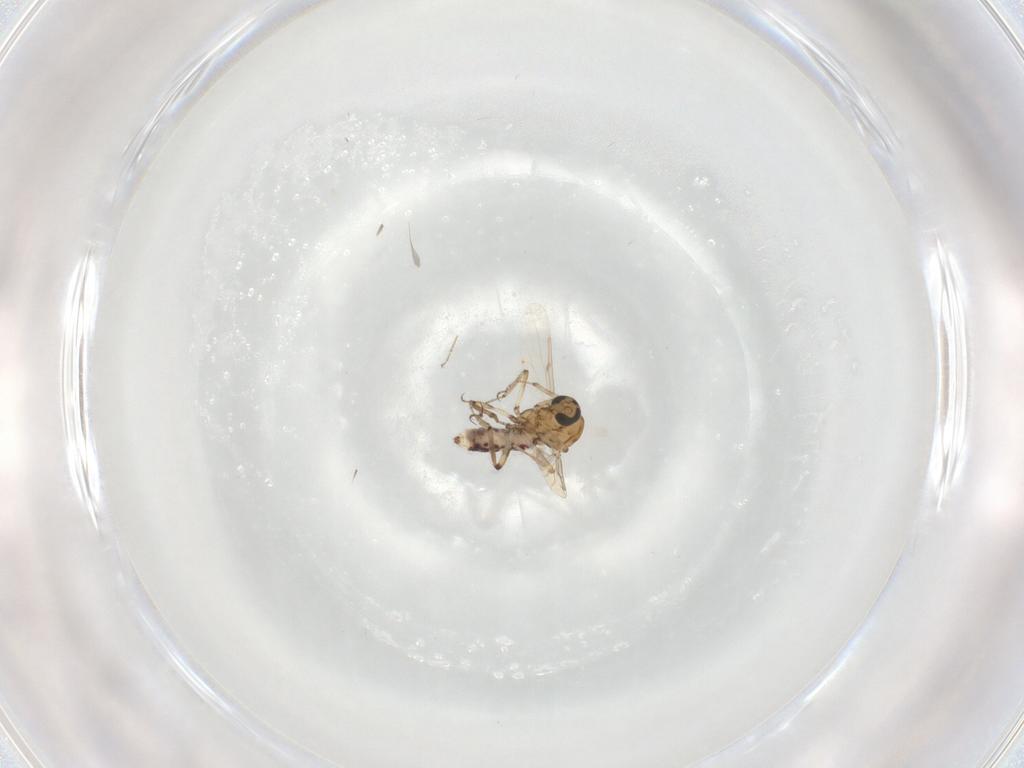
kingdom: Animalia
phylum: Arthropoda
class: Insecta
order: Diptera
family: Ceratopogonidae
